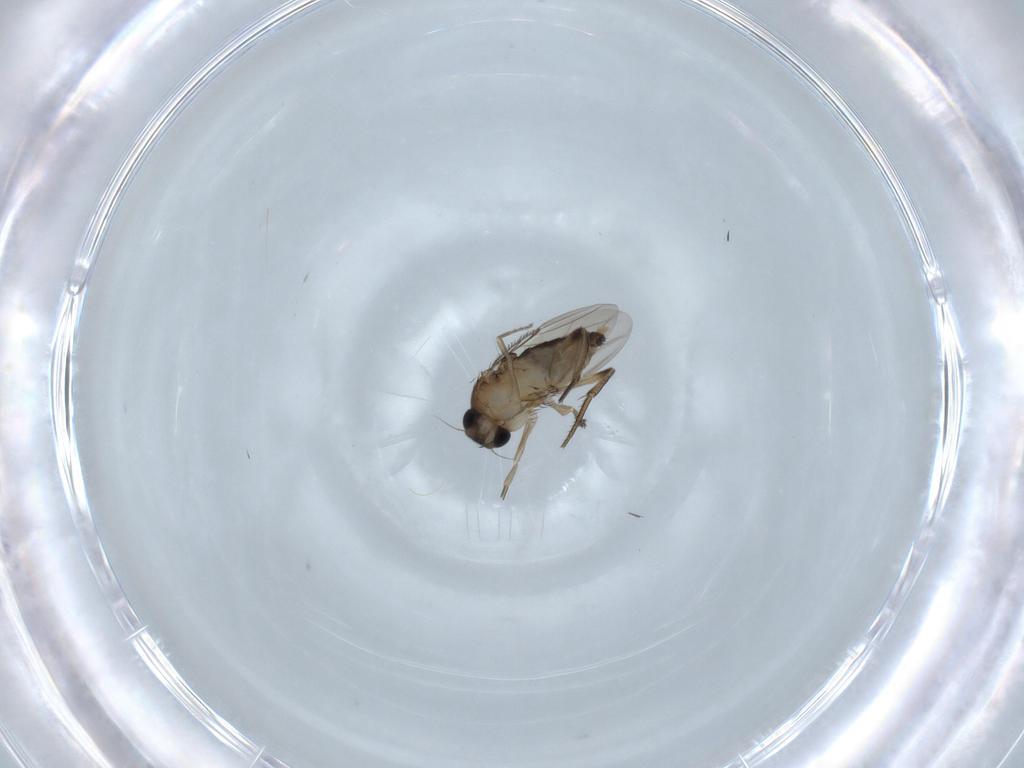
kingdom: Animalia
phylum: Arthropoda
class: Insecta
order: Diptera
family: Phoridae
